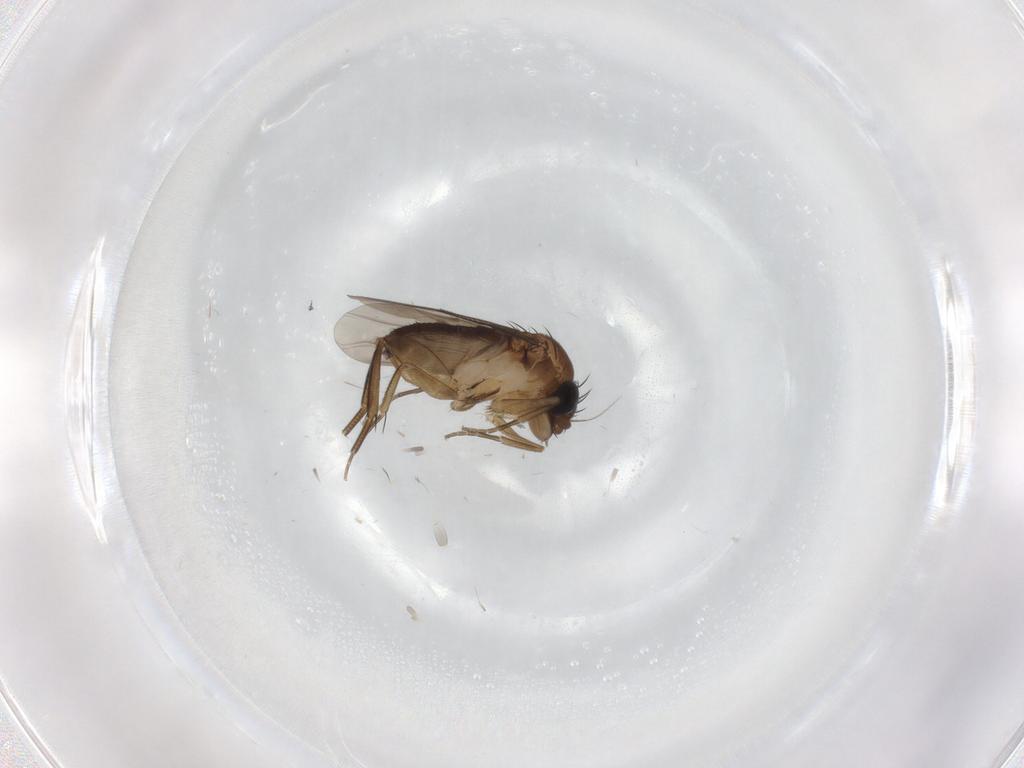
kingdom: Animalia
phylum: Arthropoda
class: Insecta
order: Diptera
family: Phoridae
